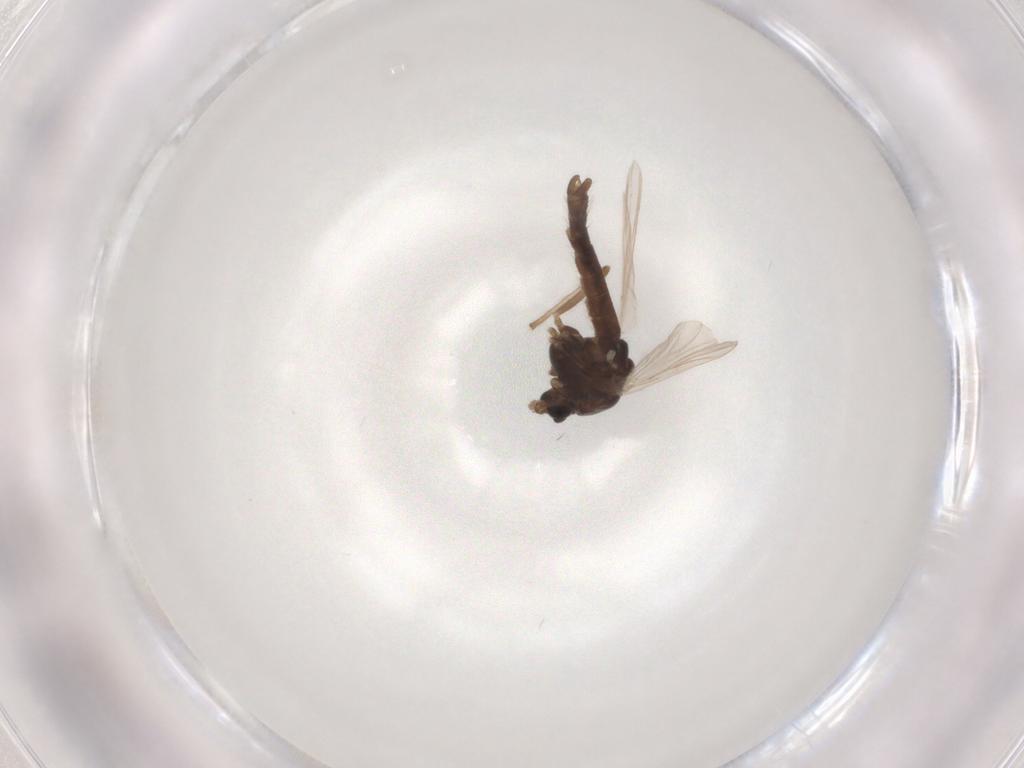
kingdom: Animalia
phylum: Arthropoda
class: Insecta
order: Diptera
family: Chironomidae
